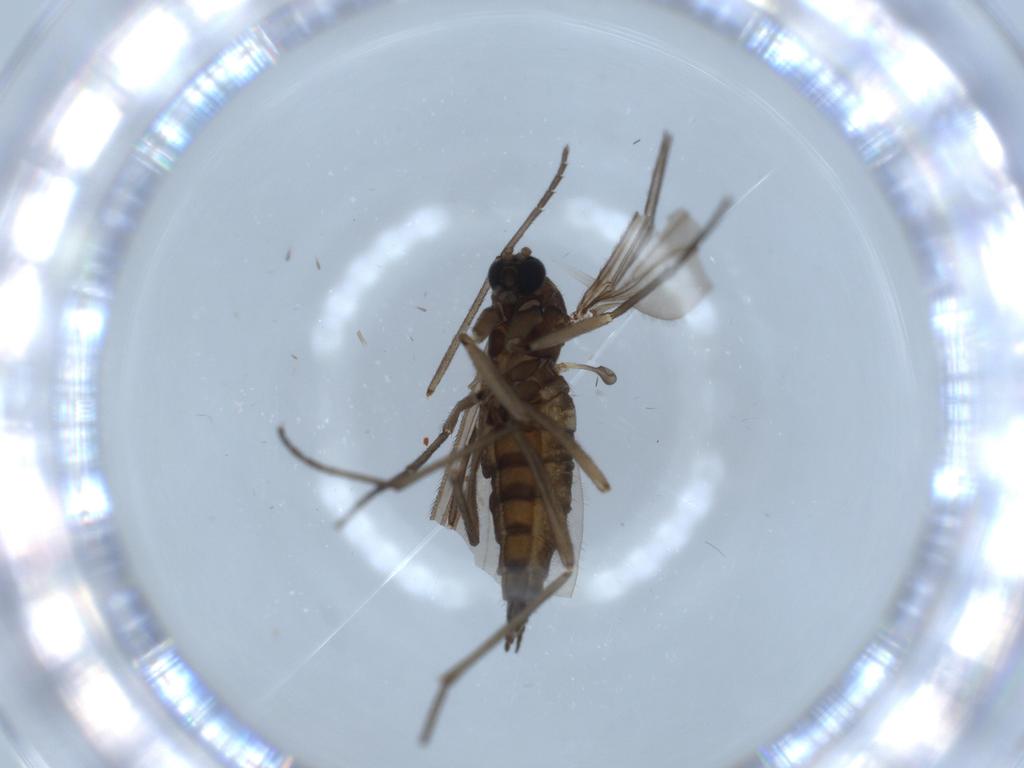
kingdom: Animalia
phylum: Arthropoda
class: Insecta
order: Diptera
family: Sciaridae
